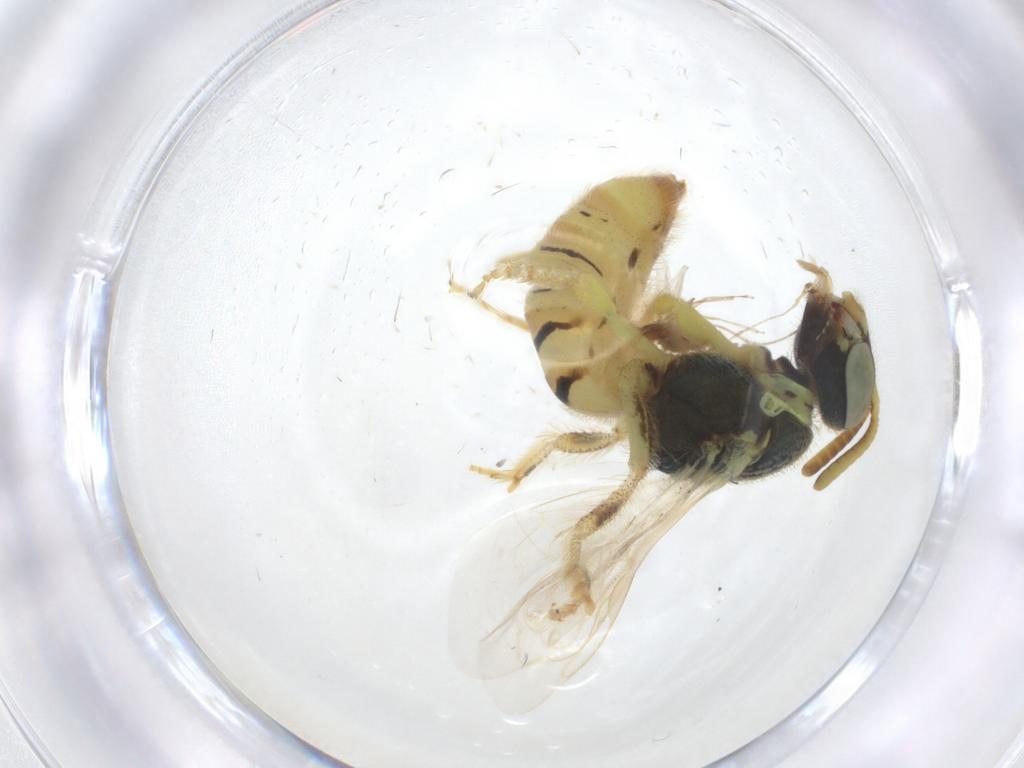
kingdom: Animalia
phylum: Arthropoda
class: Insecta
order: Hymenoptera
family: Halictidae
